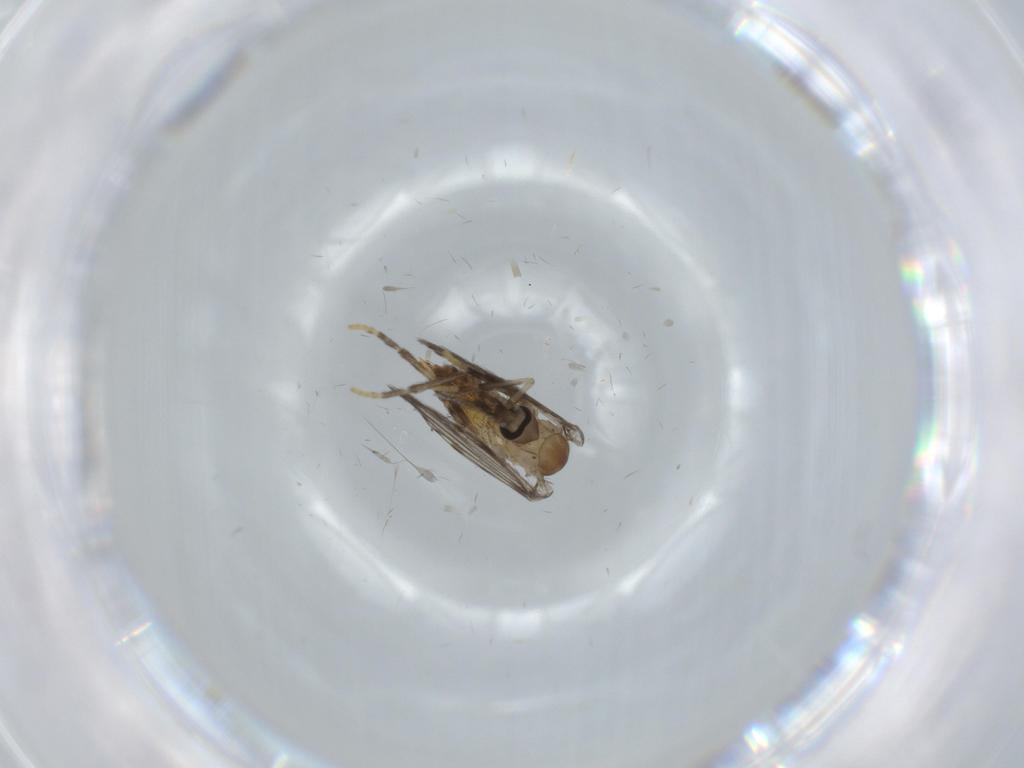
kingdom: Animalia
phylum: Arthropoda
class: Insecta
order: Diptera
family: Psychodidae
